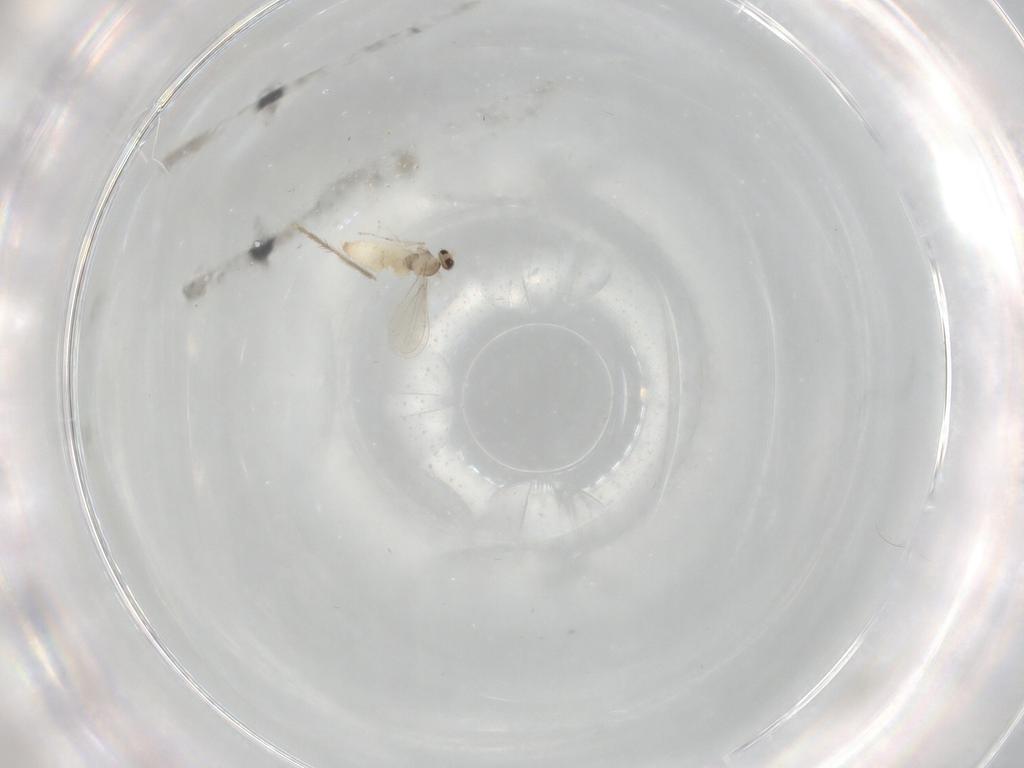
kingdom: Animalia
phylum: Arthropoda
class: Insecta
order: Diptera
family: Cecidomyiidae
